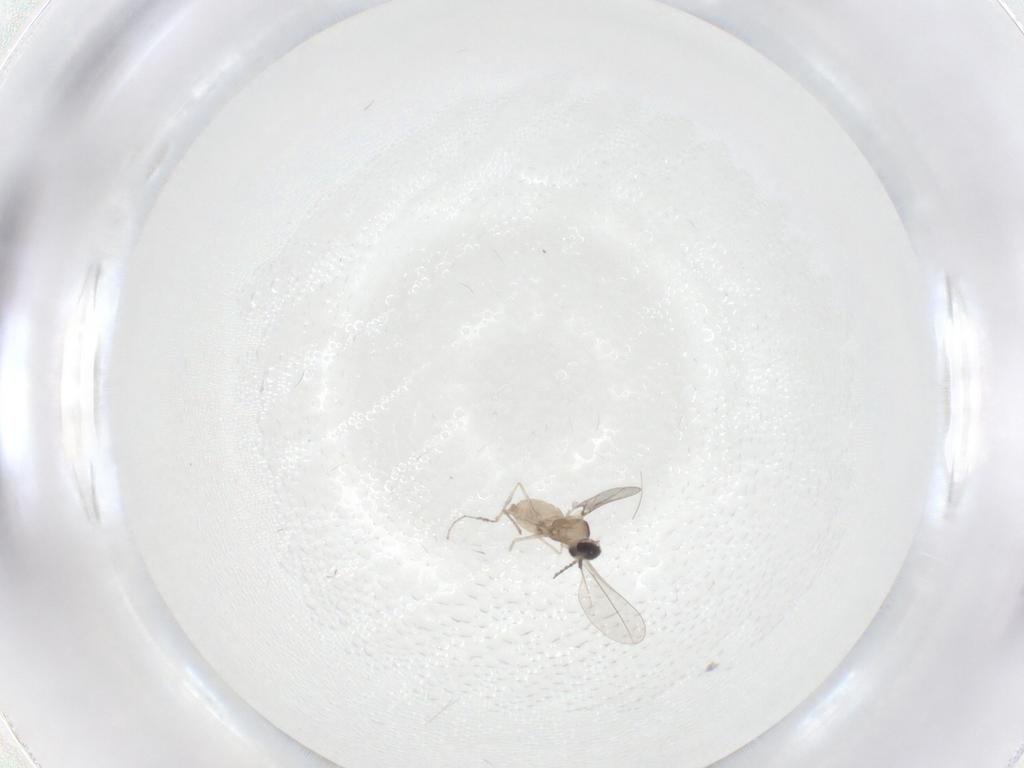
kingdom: Animalia
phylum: Arthropoda
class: Insecta
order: Diptera
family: Cecidomyiidae
